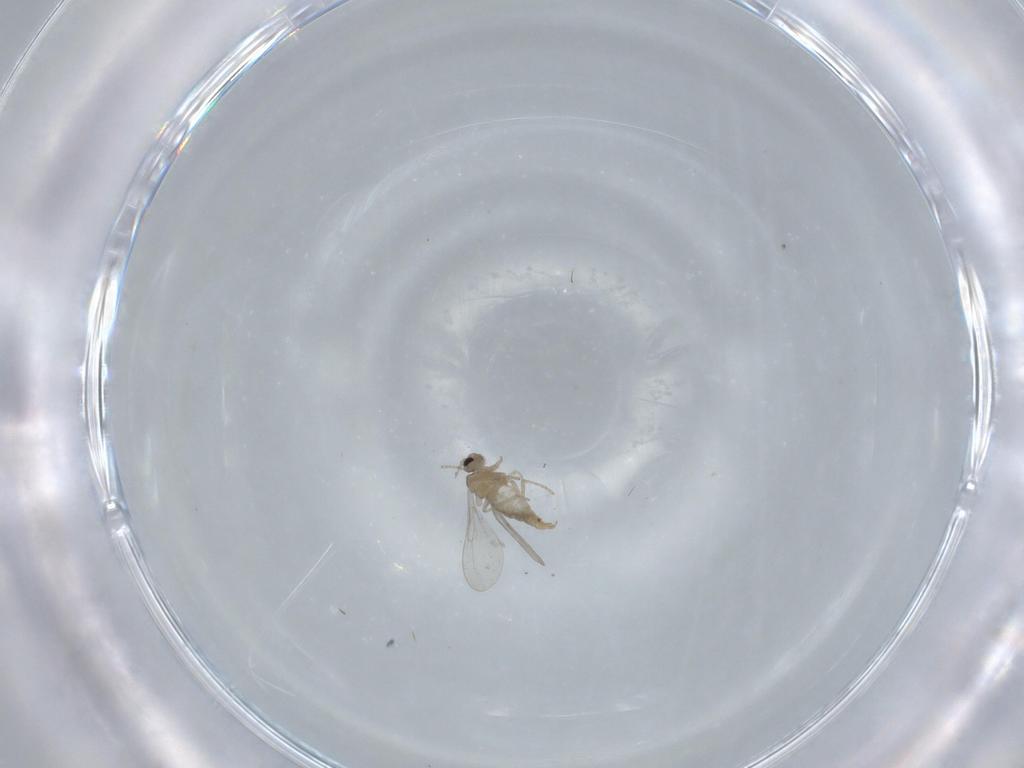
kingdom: Animalia
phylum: Arthropoda
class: Insecta
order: Diptera
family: Cecidomyiidae
